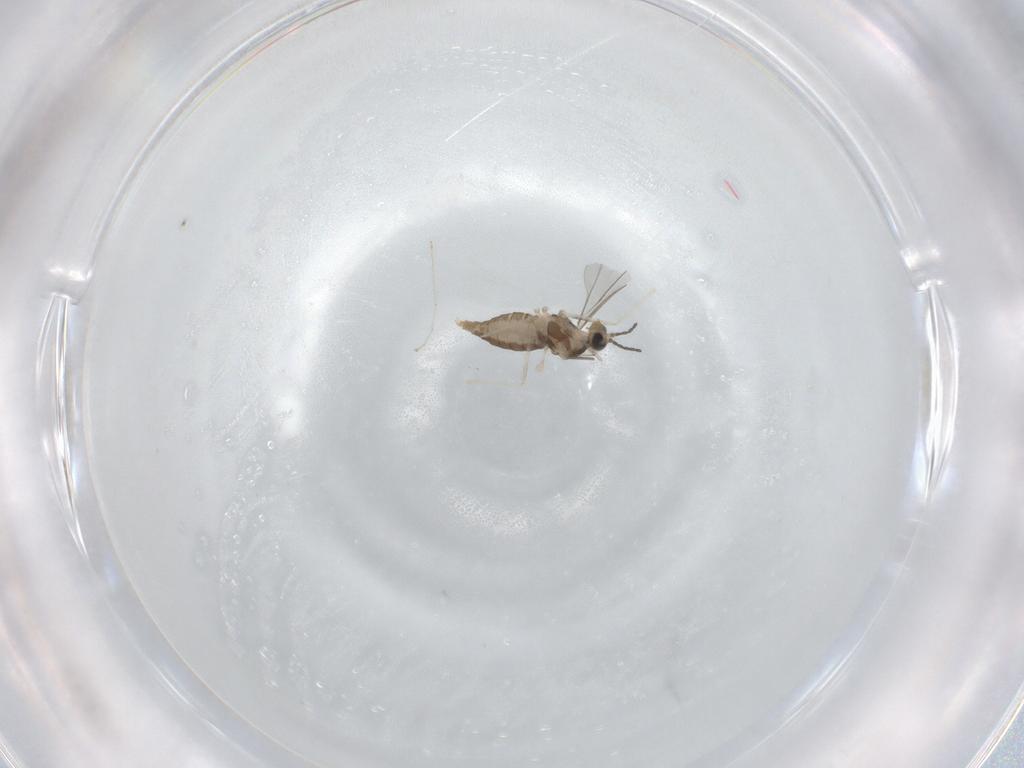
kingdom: Animalia
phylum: Arthropoda
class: Insecta
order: Diptera
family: Cecidomyiidae
